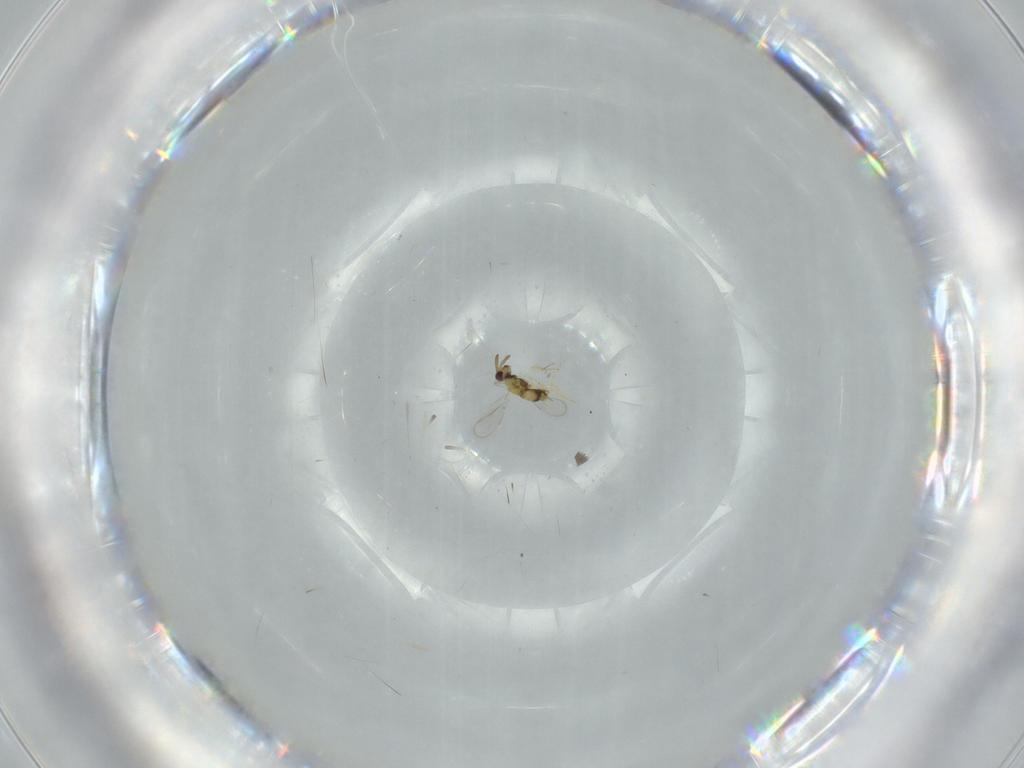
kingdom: Animalia
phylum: Arthropoda
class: Insecta
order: Hymenoptera
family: Aphelinidae
